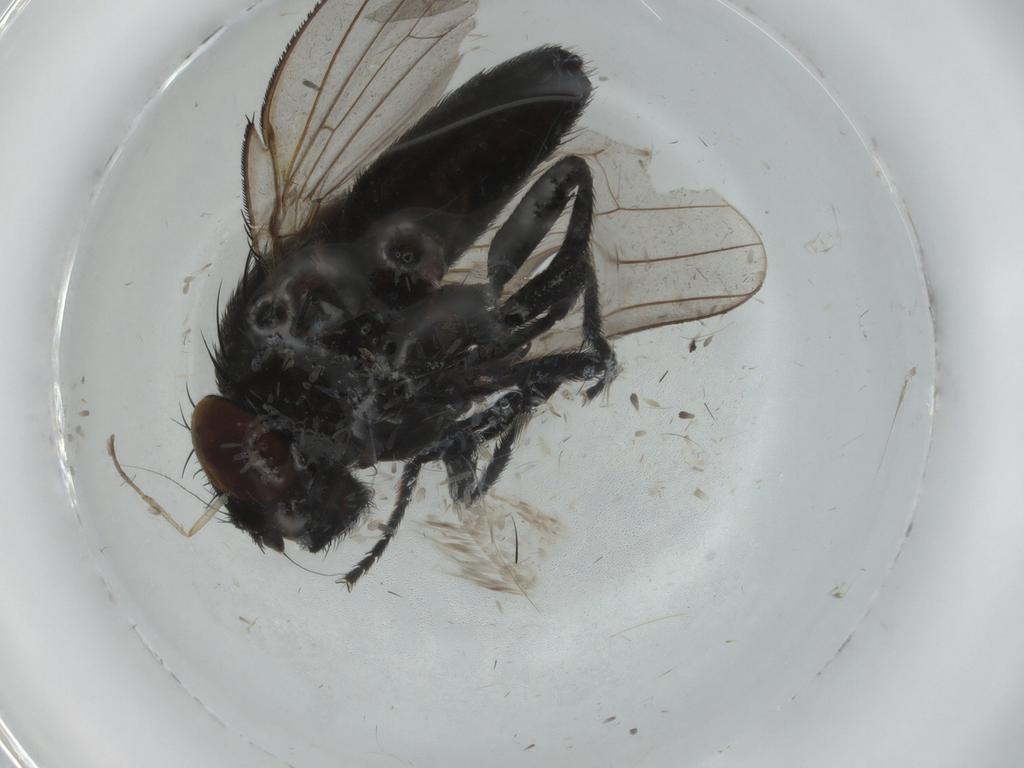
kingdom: Animalia
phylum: Arthropoda
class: Insecta
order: Diptera
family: Milichiidae
